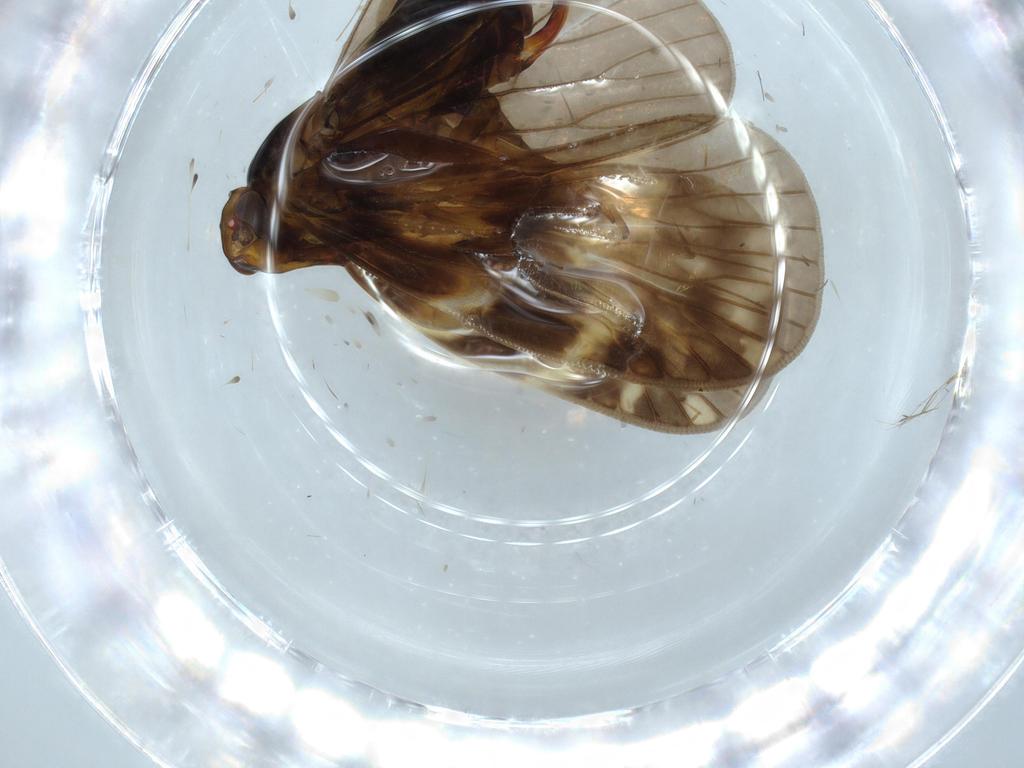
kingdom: Animalia
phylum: Arthropoda
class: Insecta
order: Hemiptera
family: Cixiidae
